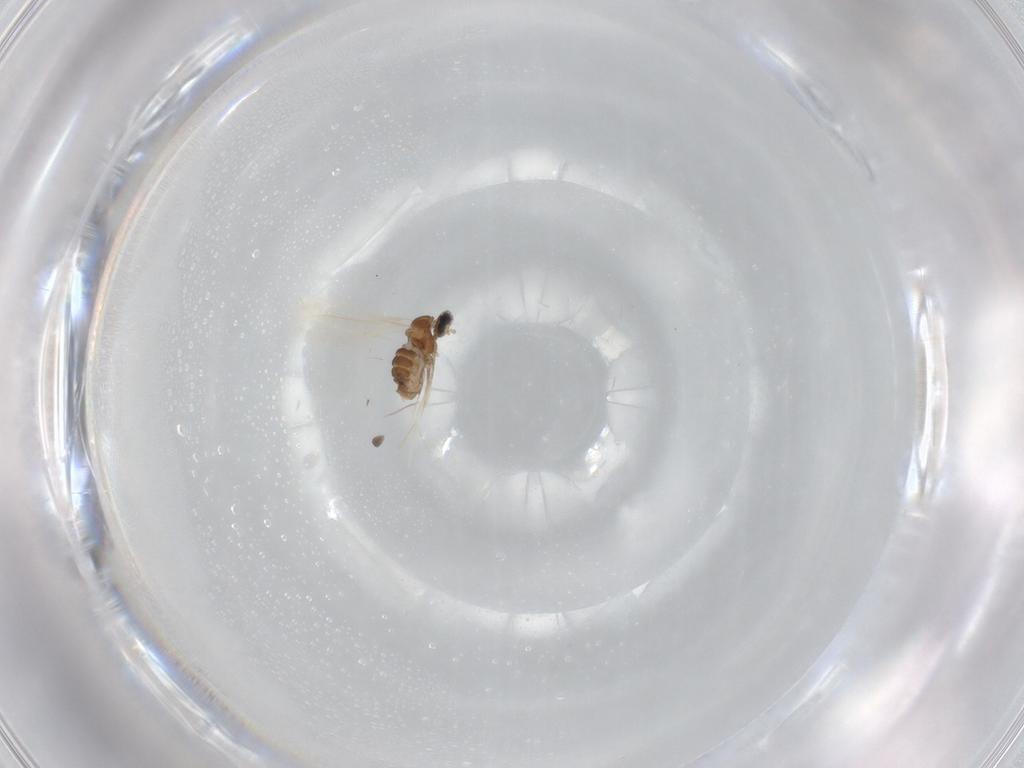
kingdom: Animalia
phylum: Arthropoda
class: Insecta
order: Diptera
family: Cecidomyiidae
